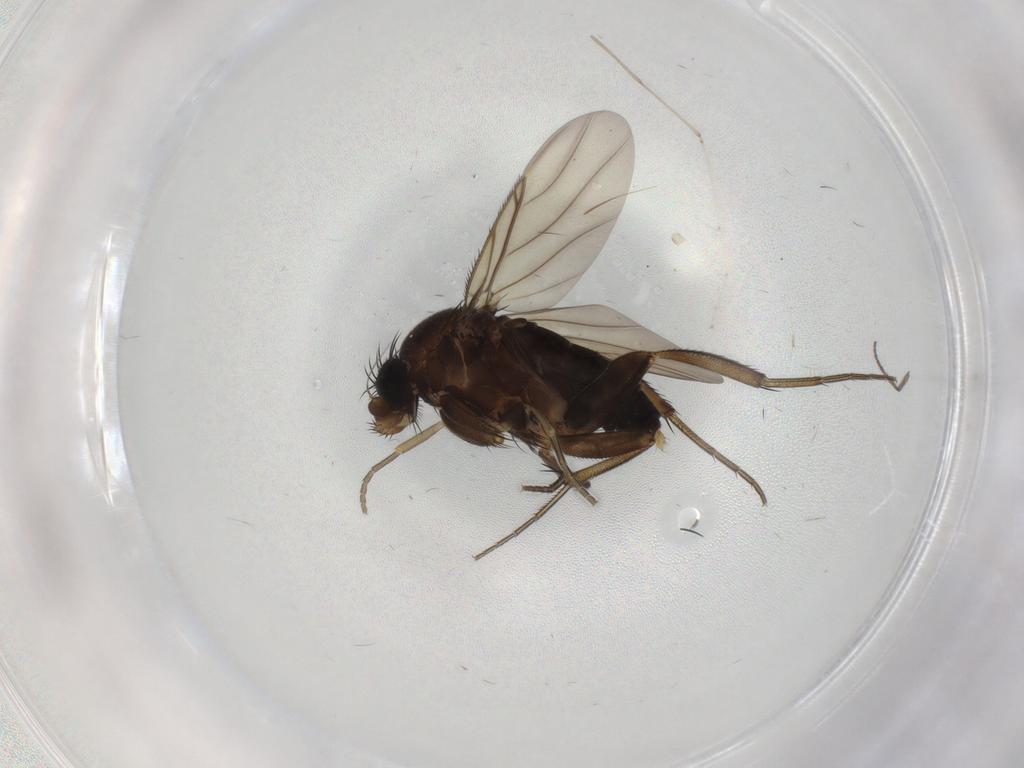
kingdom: Animalia
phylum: Arthropoda
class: Insecta
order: Diptera
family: Phoridae
